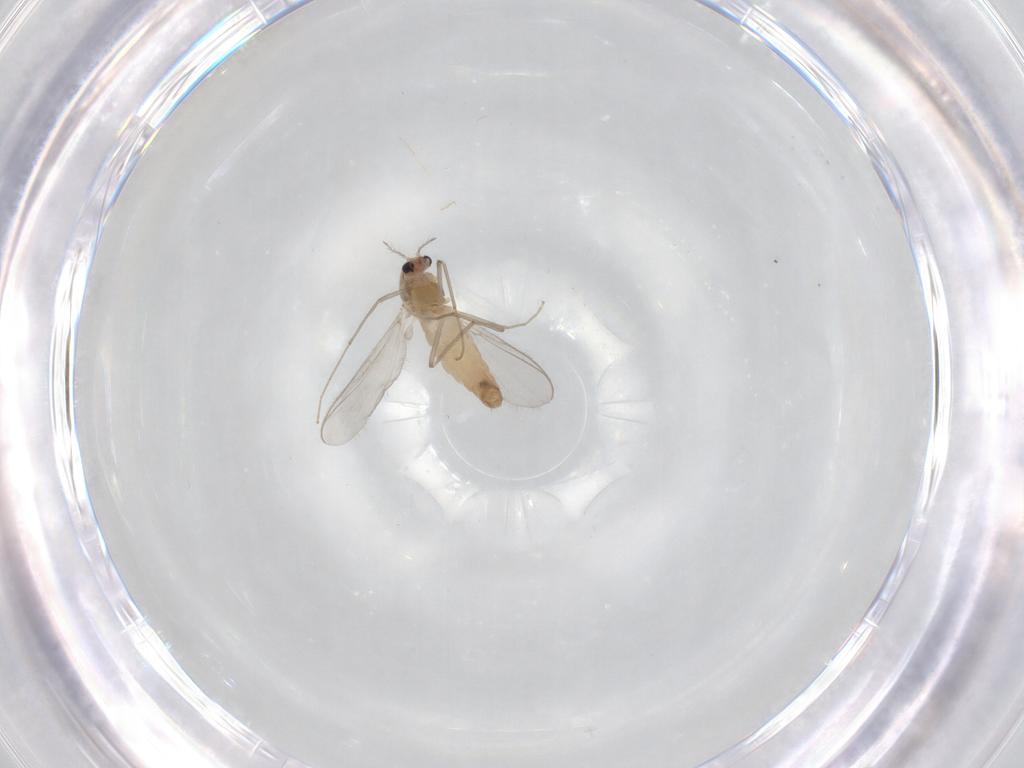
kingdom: Animalia
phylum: Arthropoda
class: Insecta
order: Diptera
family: Chironomidae
